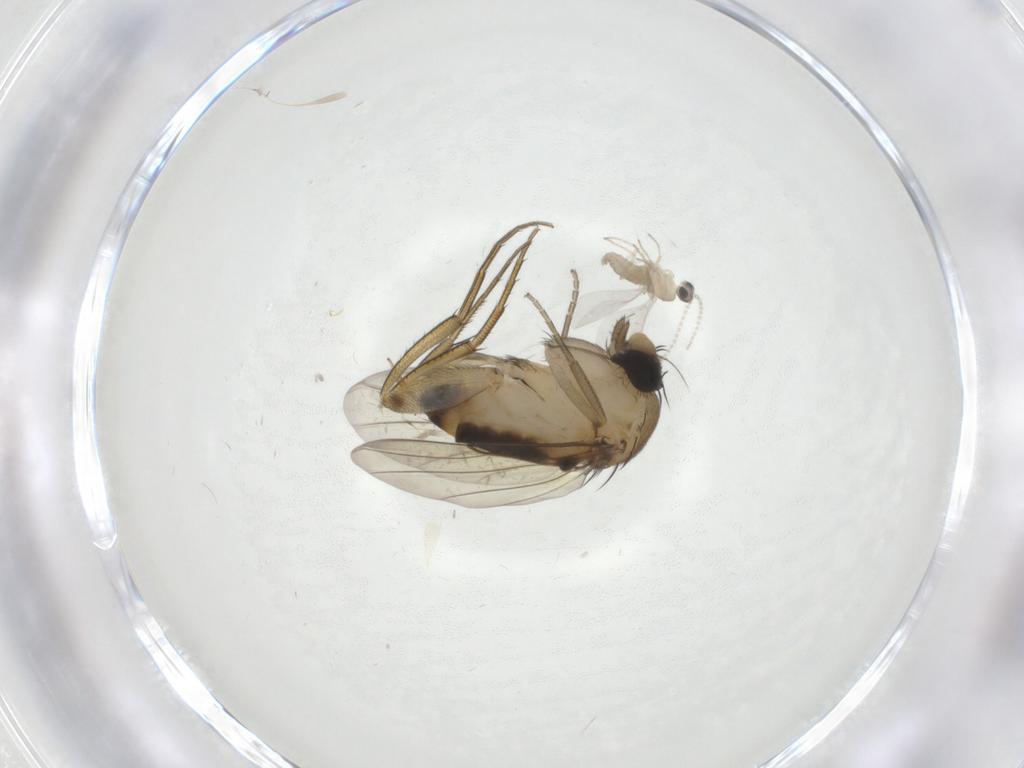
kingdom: Animalia
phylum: Arthropoda
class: Insecta
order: Diptera
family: Phoridae
